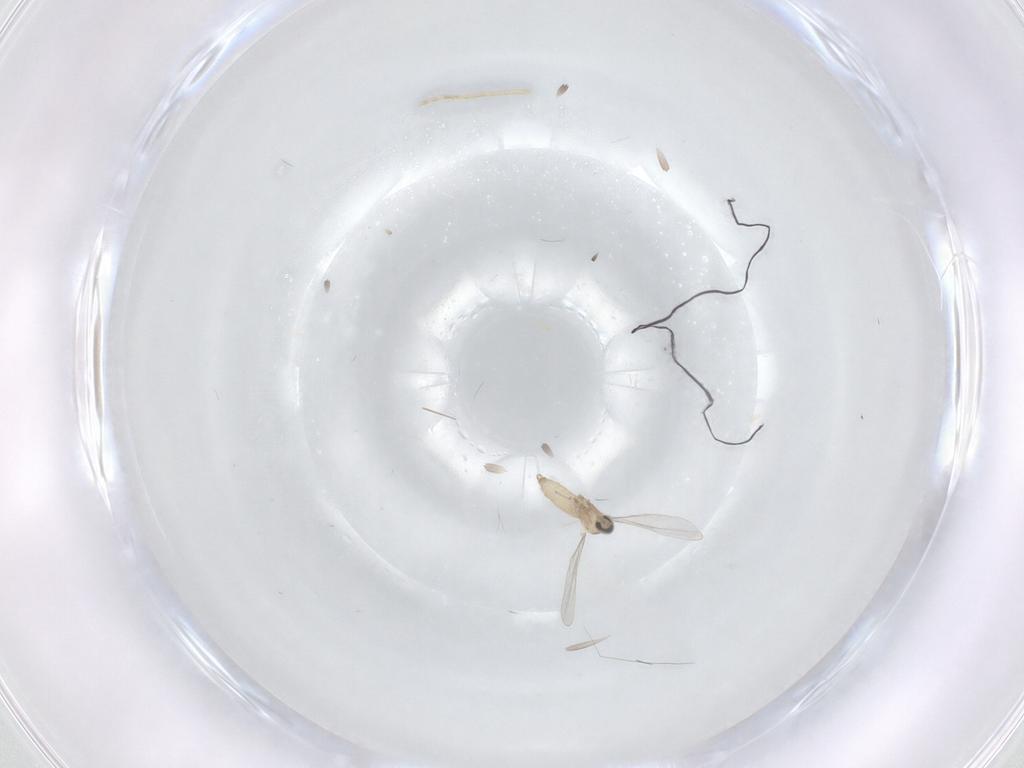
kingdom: Animalia
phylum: Arthropoda
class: Insecta
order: Diptera
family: Cecidomyiidae
